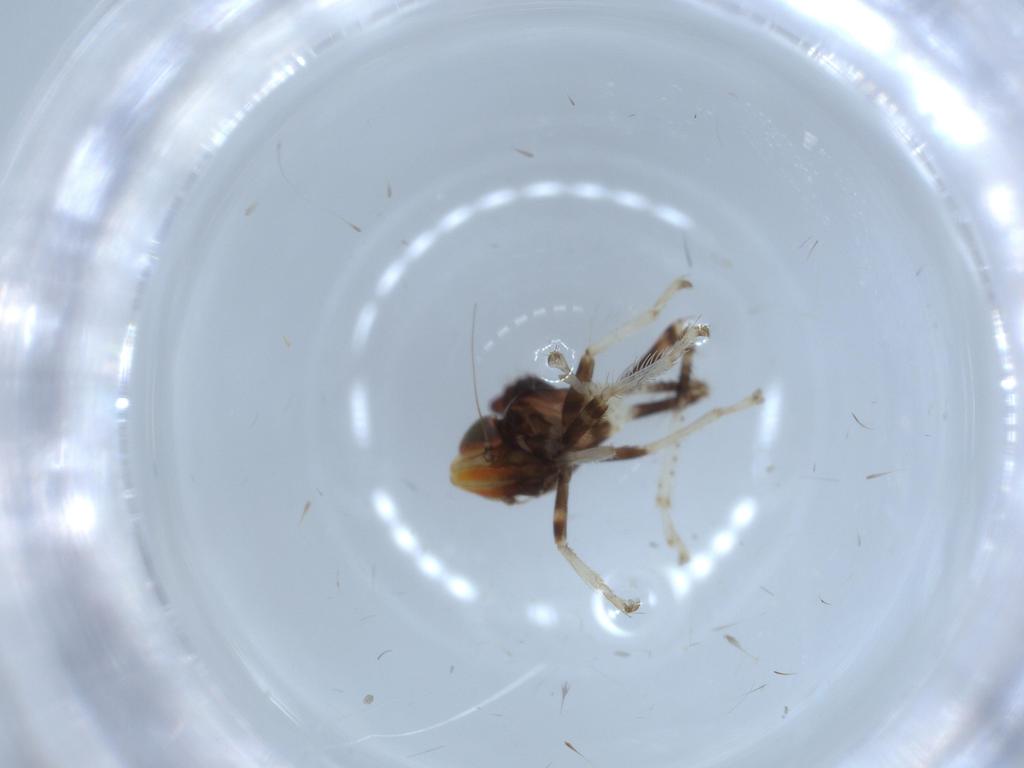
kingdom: Animalia
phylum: Arthropoda
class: Insecta
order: Hemiptera
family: Cicadellidae
